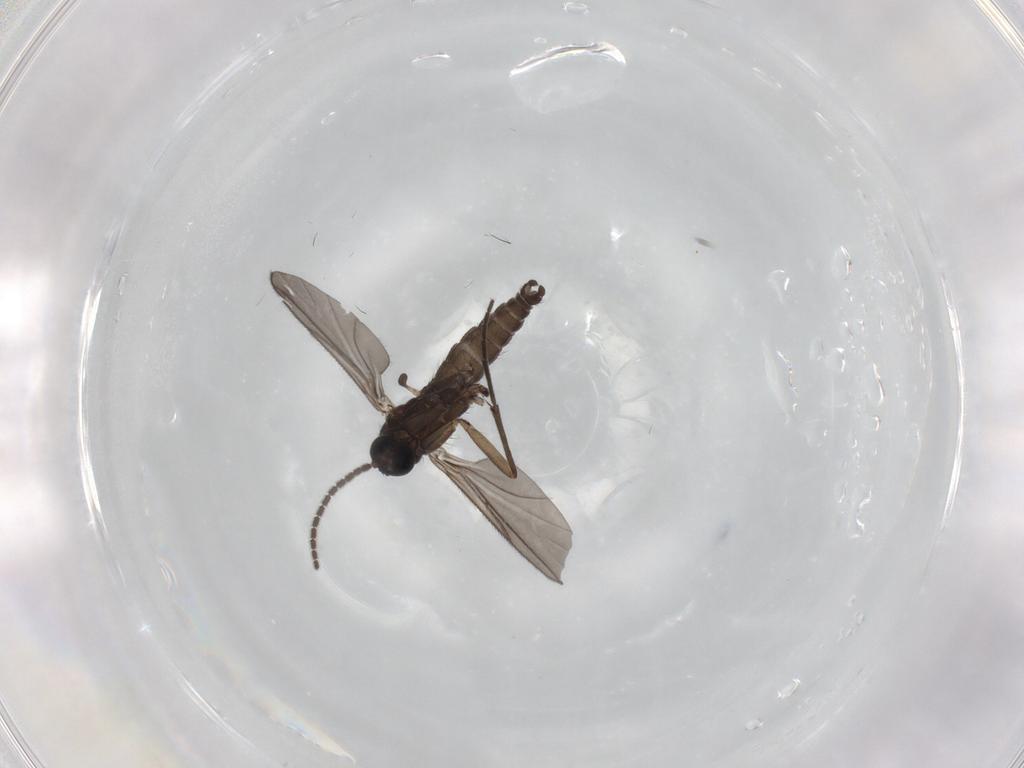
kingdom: Animalia
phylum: Arthropoda
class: Insecta
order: Diptera
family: Sciaridae
